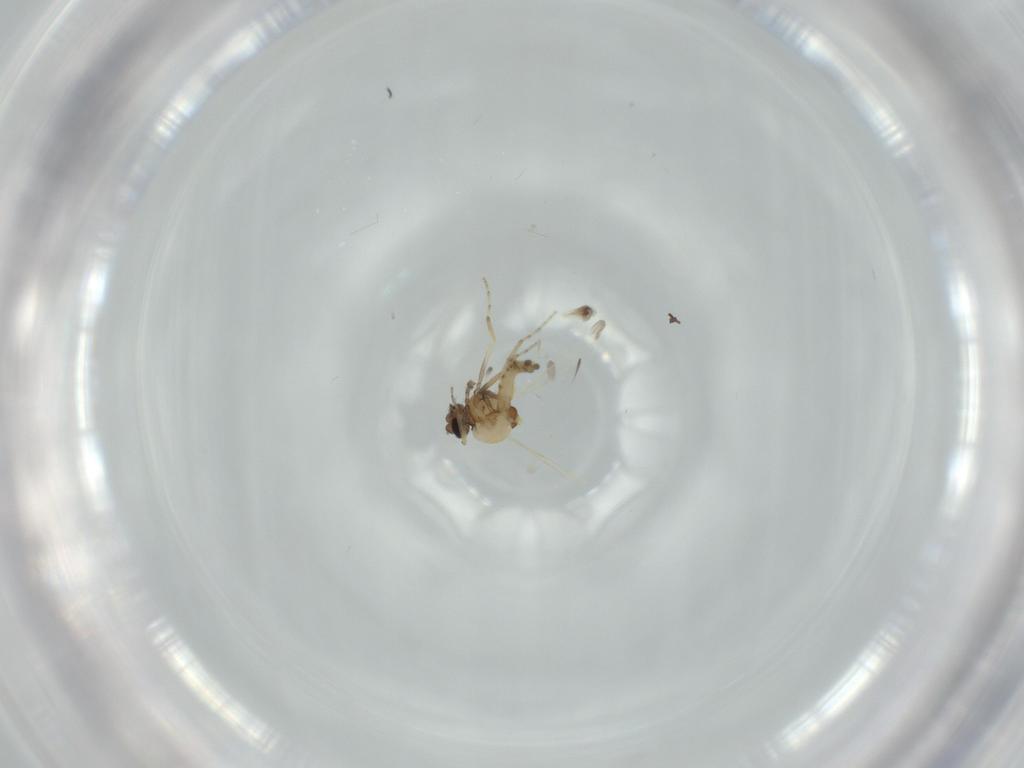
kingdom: Animalia
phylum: Arthropoda
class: Insecta
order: Diptera
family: Ceratopogonidae
